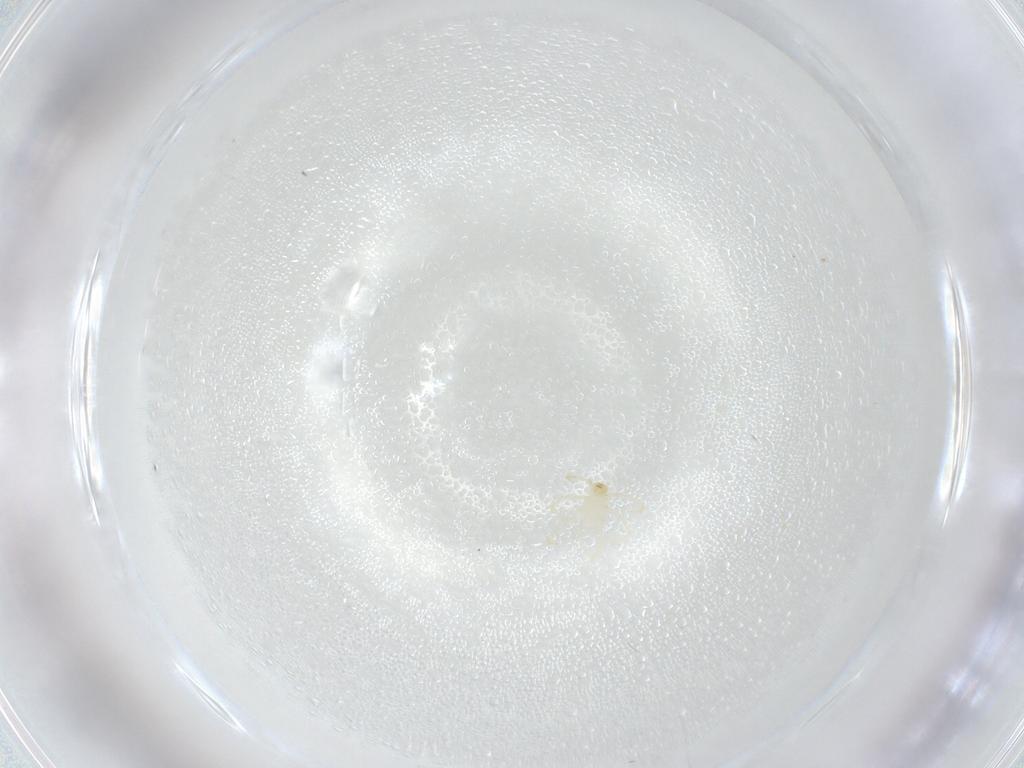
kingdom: Animalia
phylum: Arthropoda
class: Arachnida
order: Trombidiformes
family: Erythraeidae
